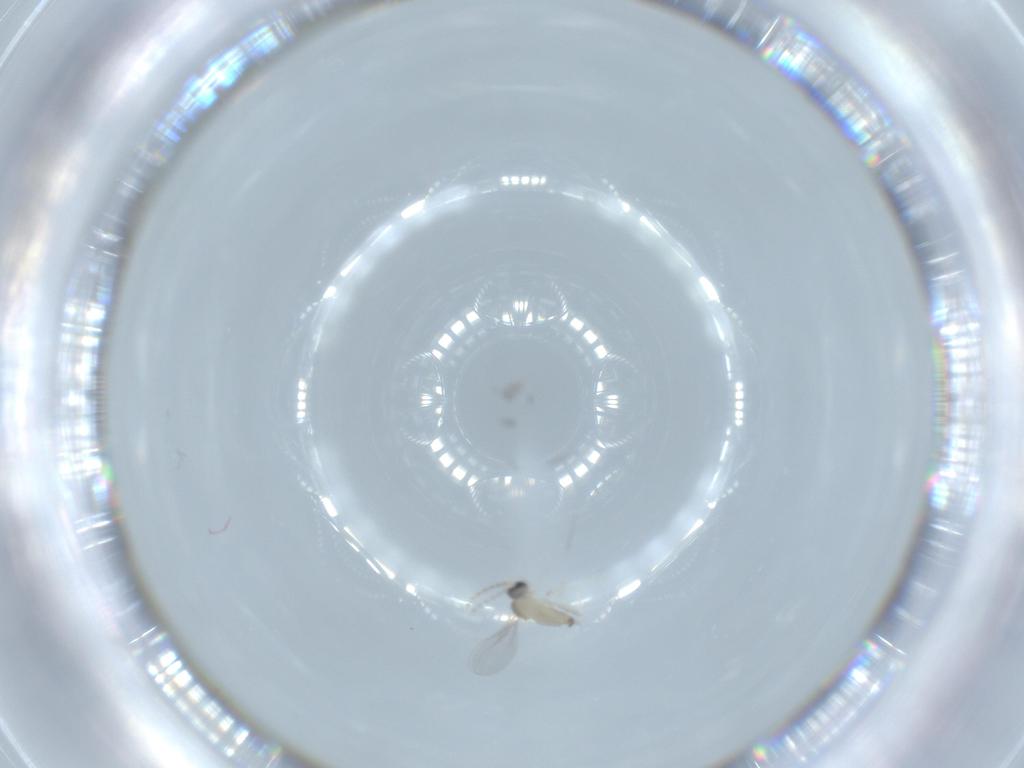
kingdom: Animalia
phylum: Arthropoda
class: Insecta
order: Diptera
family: Cecidomyiidae
